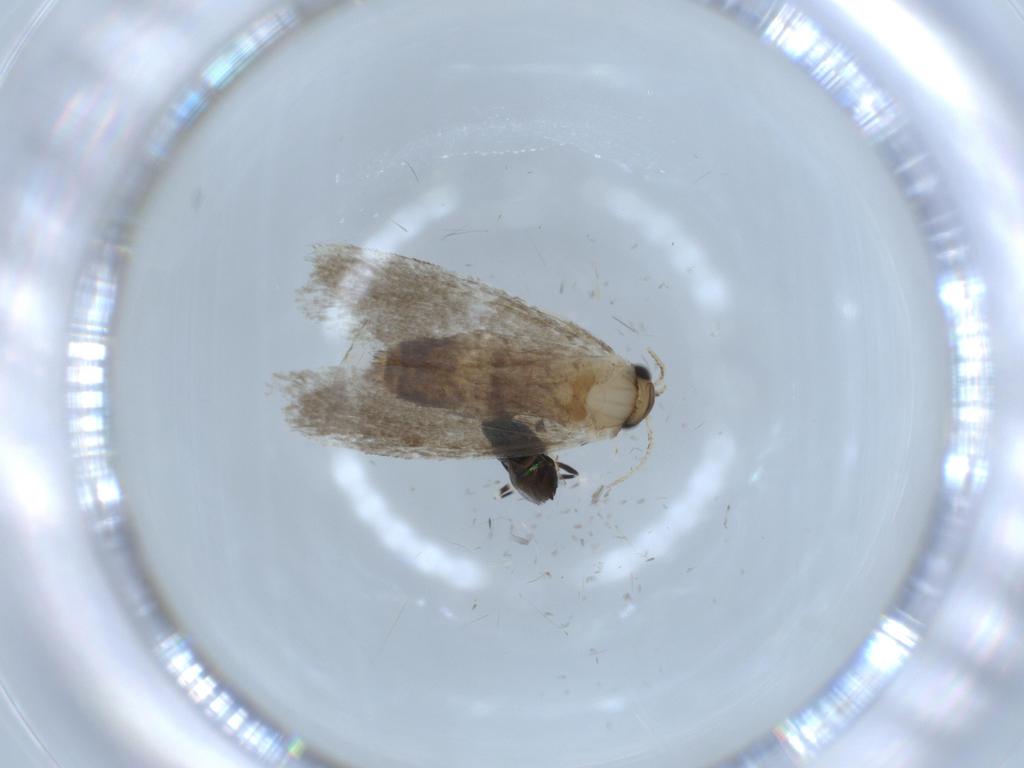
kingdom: Animalia
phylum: Arthropoda
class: Insecta
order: Lepidoptera
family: Tineidae
